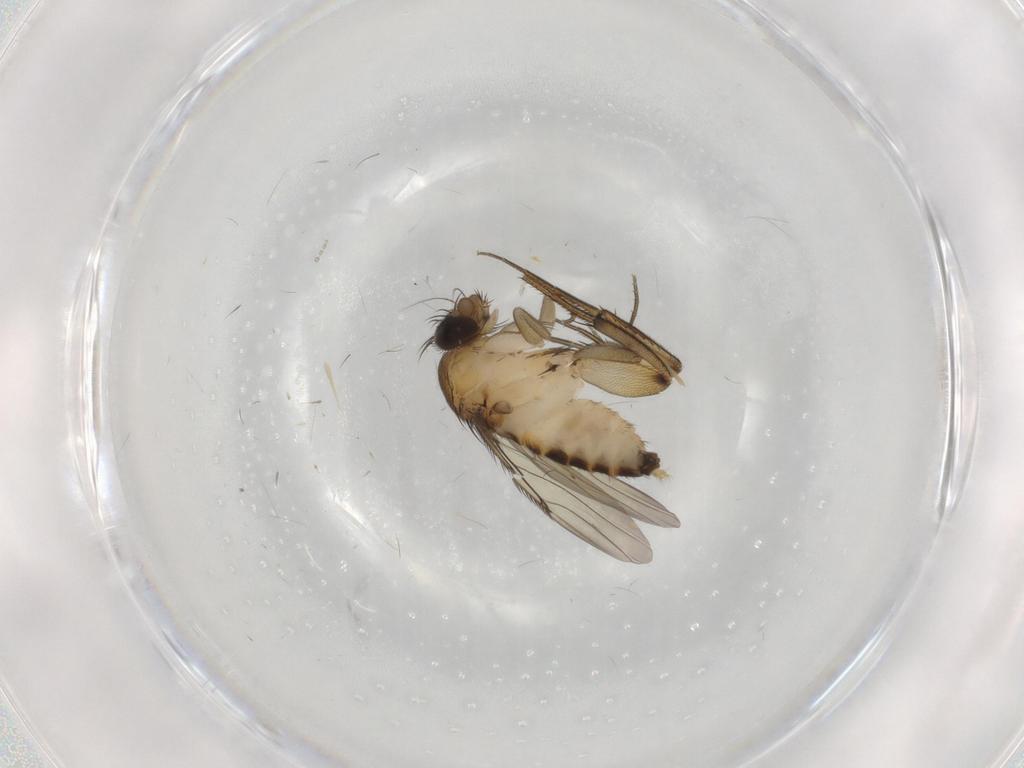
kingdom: Animalia
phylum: Arthropoda
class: Insecta
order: Diptera
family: Phoridae
